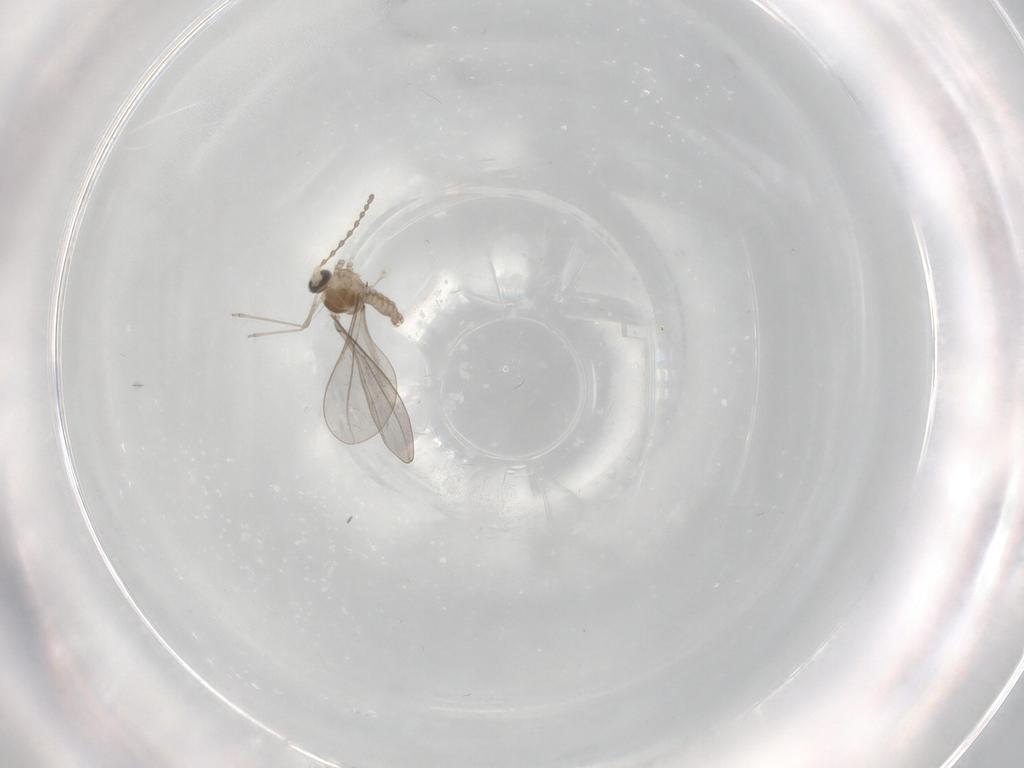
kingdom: Animalia
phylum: Arthropoda
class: Insecta
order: Diptera
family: Cecidomyiidae
